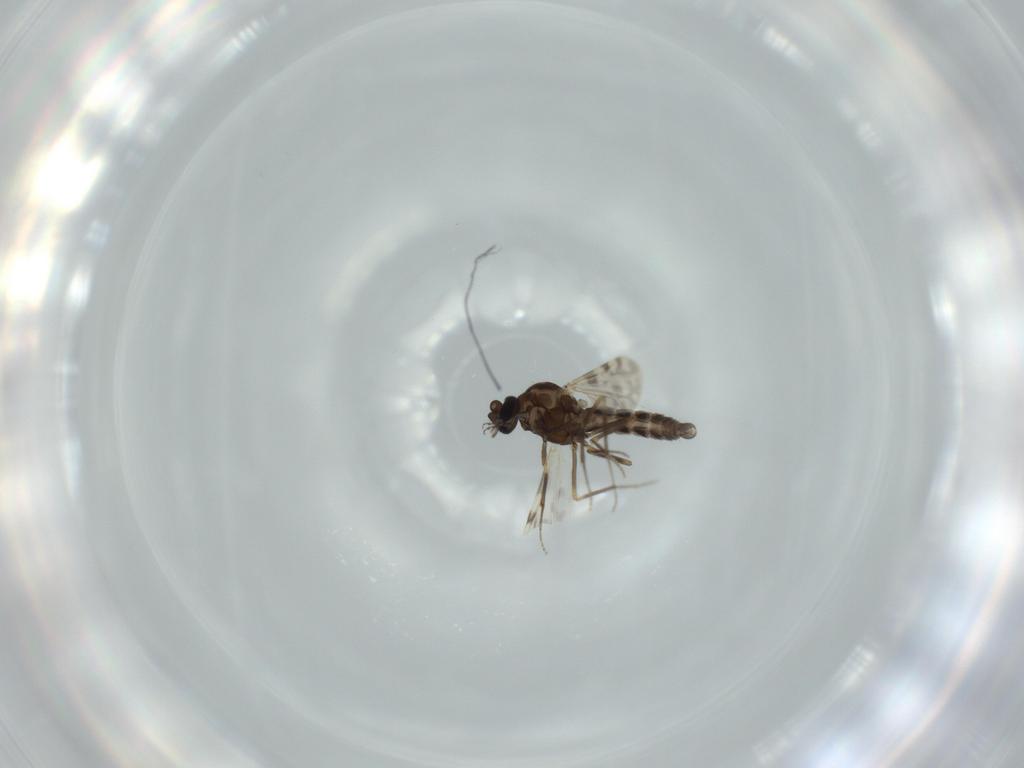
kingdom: Animalia
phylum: Arthropoda
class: Insecta
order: Diptera
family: Ceratopogonidae
